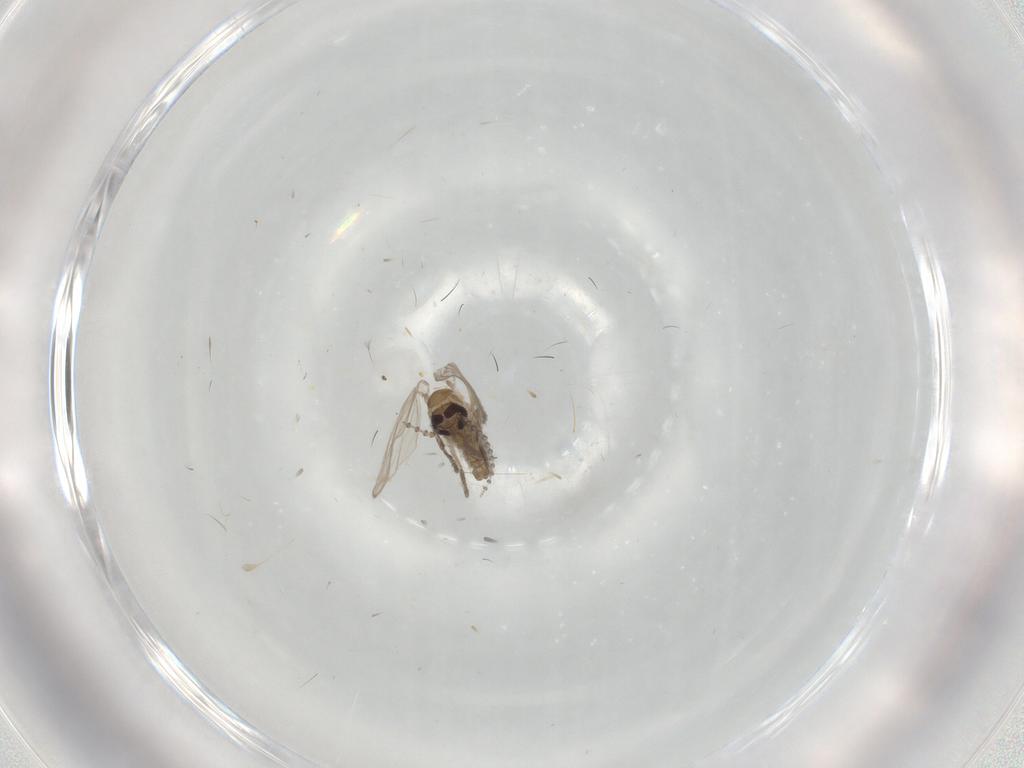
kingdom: Animalia
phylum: Arthropoda
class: Insecta
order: Diptera
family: Psychodidae
